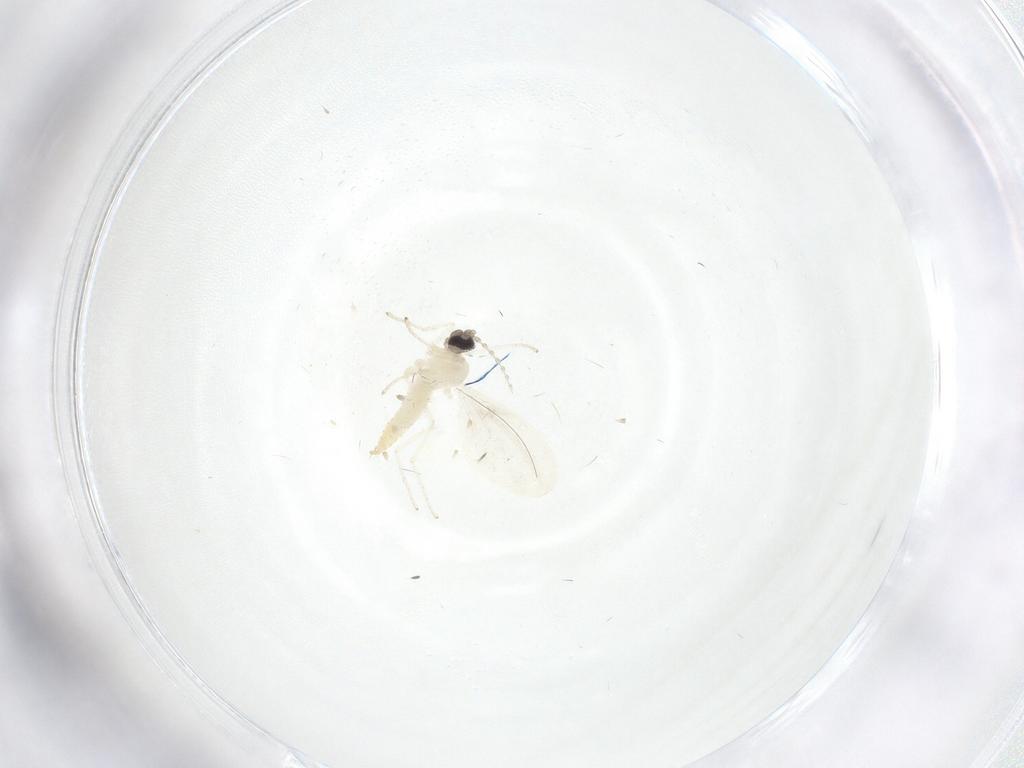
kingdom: Animalia
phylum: Arthropoda
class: Insecta
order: Diptera
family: Cecidomyiidae
